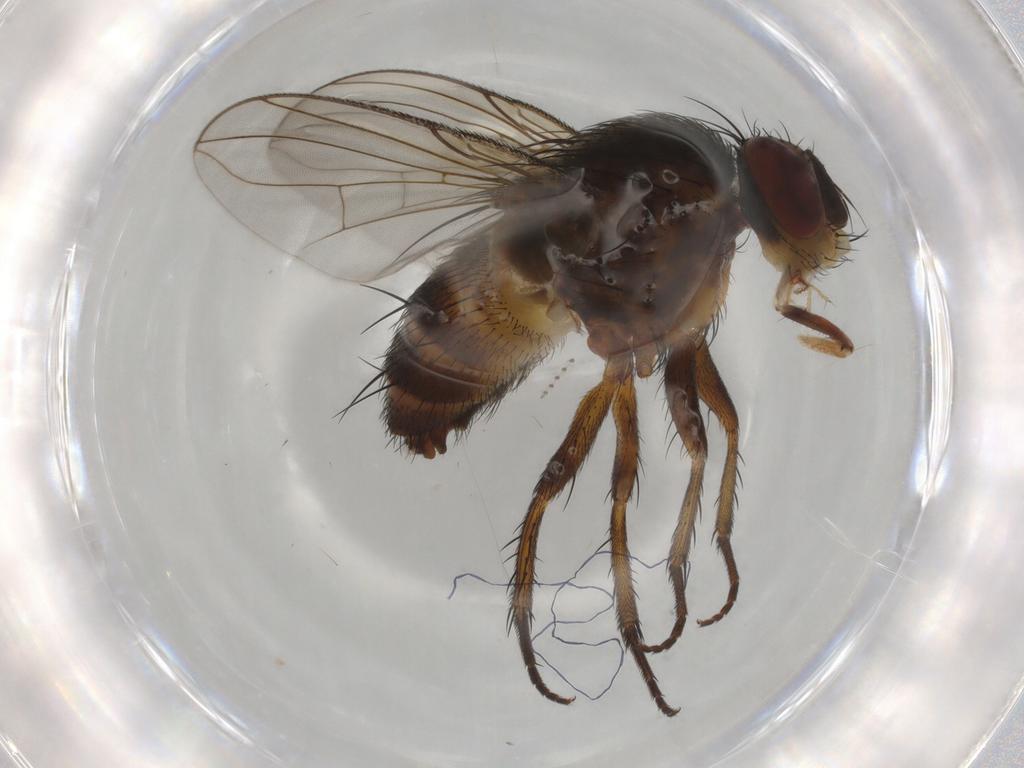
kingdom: Animalia
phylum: Arthropoda
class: Insecta
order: Diptera
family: Tachinidae
